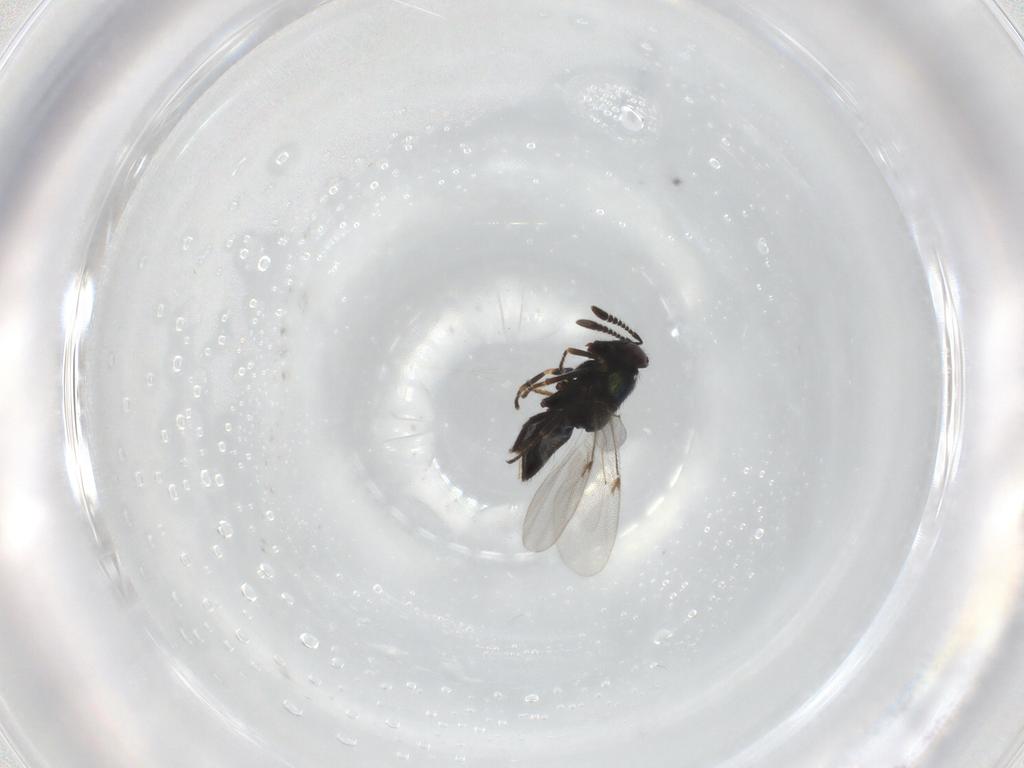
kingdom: Animalia
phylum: Arthropoda
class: Insecta
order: Hymenoptera
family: Encyrtidae
